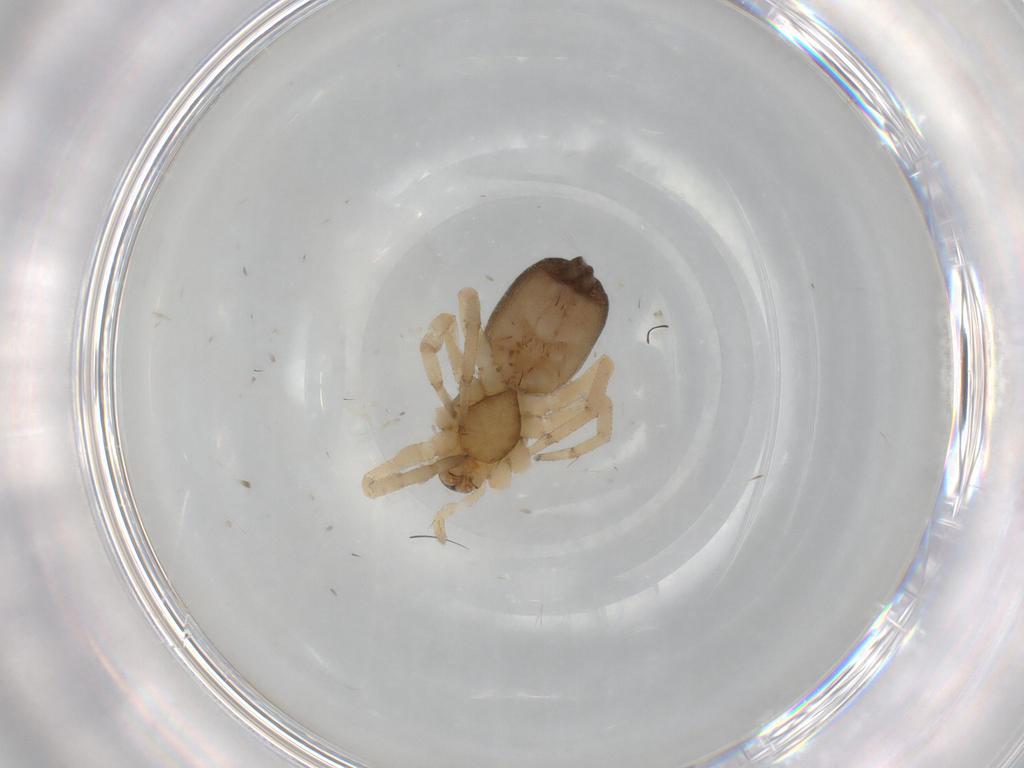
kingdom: Animalia
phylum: Arthropoda
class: Arachnida
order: Araneae
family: Gnaphosidae
